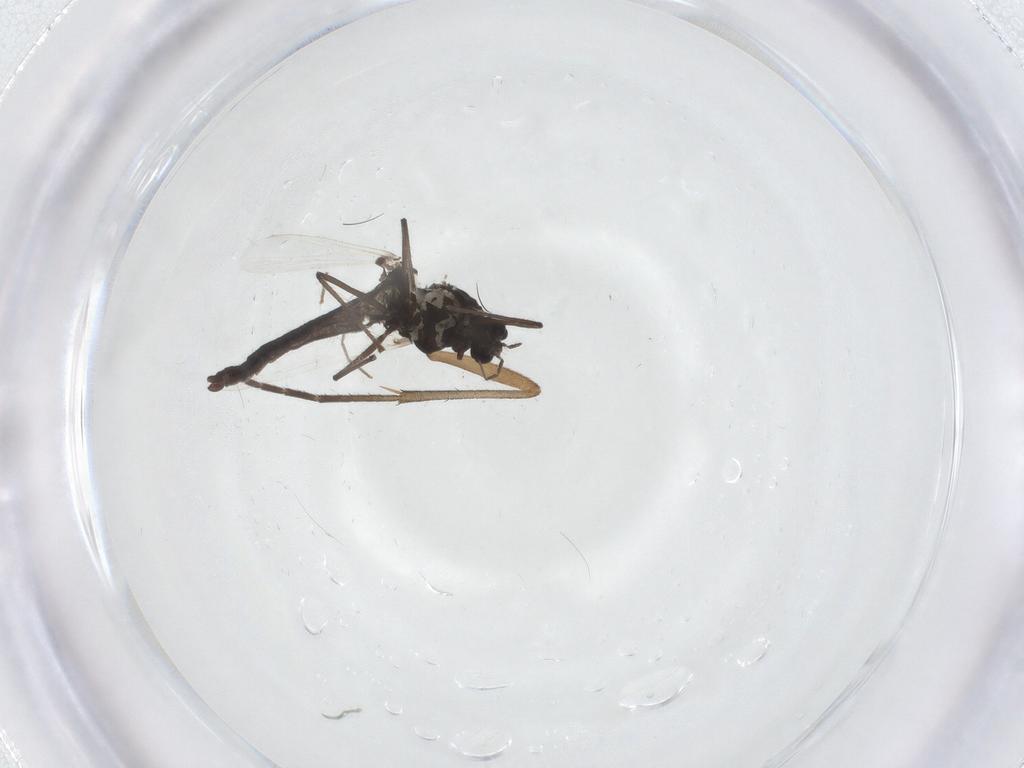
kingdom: Animalia
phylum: Arthropoda
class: Insecta
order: Diptera
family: Chironomidae
